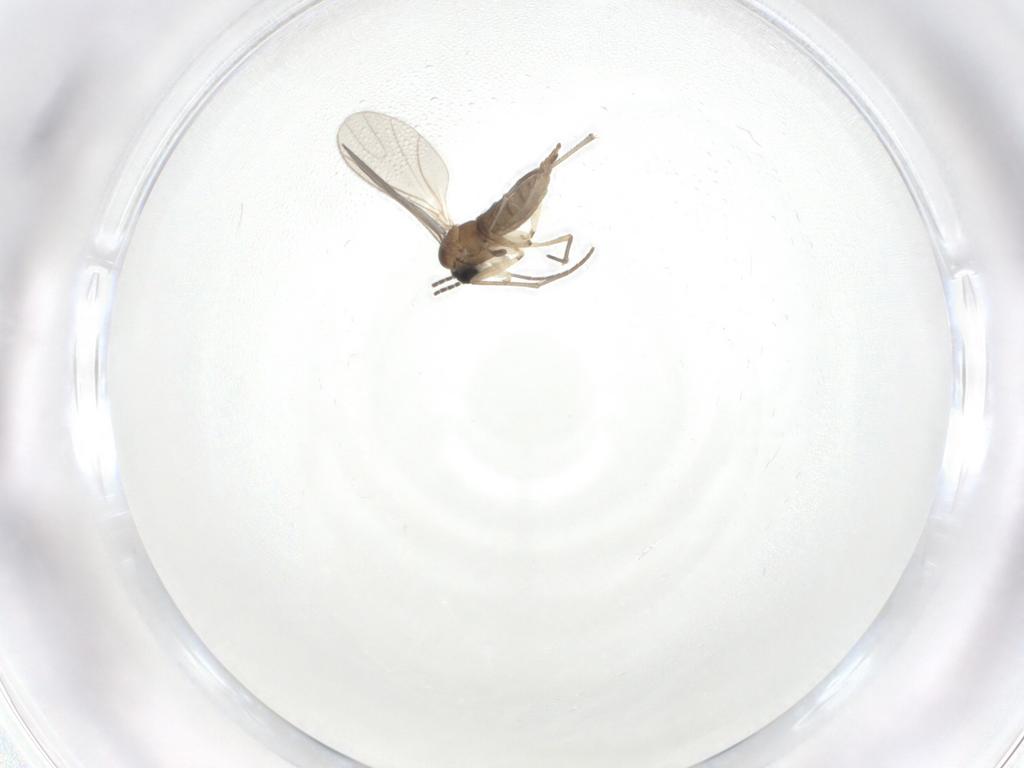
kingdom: Animalia
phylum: Arthropoda
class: Insecta
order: Diptera
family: Sciaridae
